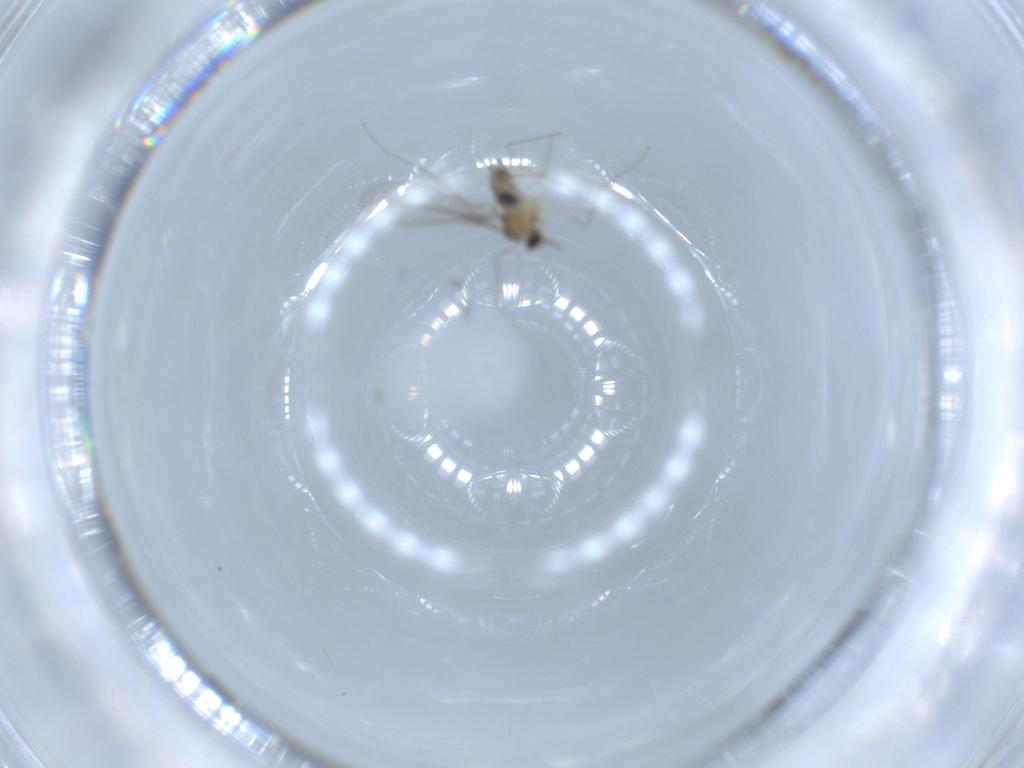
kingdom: Animalia
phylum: Arthropoda
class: Insecta
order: Diptera
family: Cecidomyiidae
